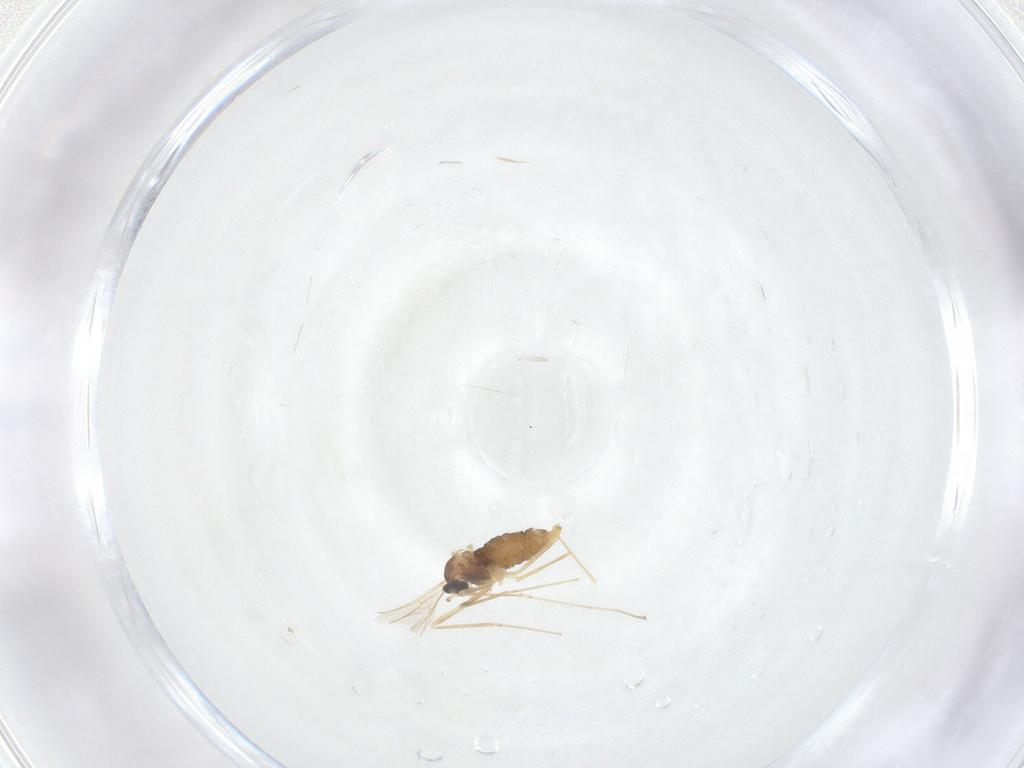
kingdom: Animalia
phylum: Arthropoda
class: Insecta
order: Diptera
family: Cecidomyiidae
